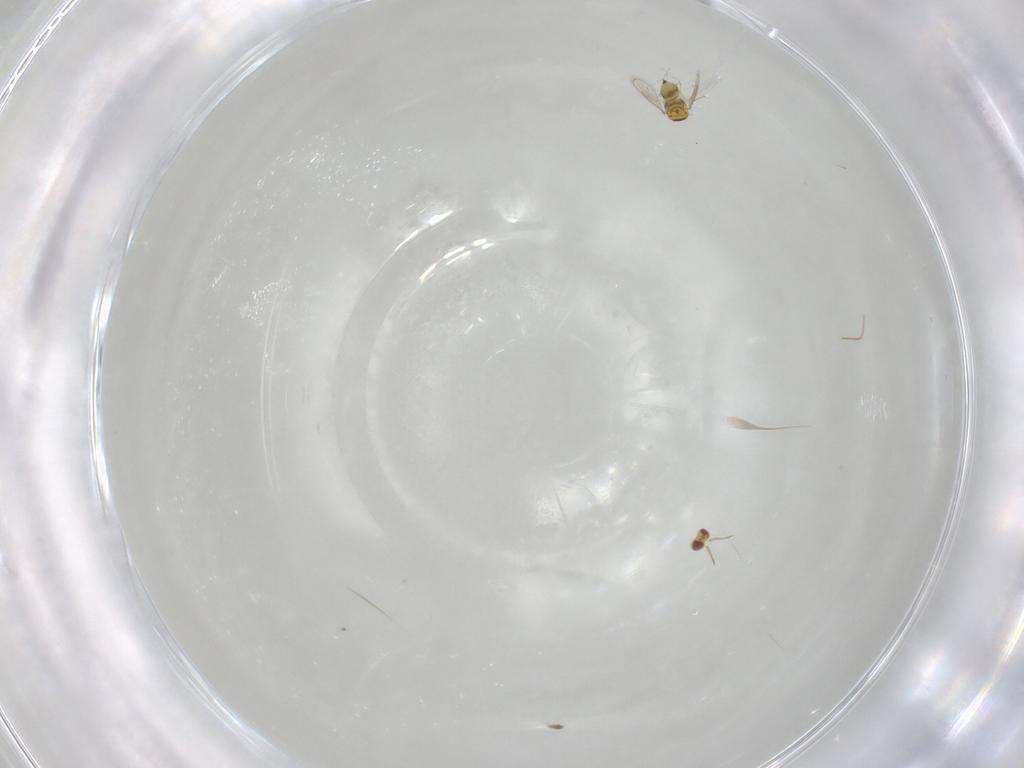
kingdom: Animalia
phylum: Arthropoda
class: Insecta
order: Hymenoptera
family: Eulophidae
